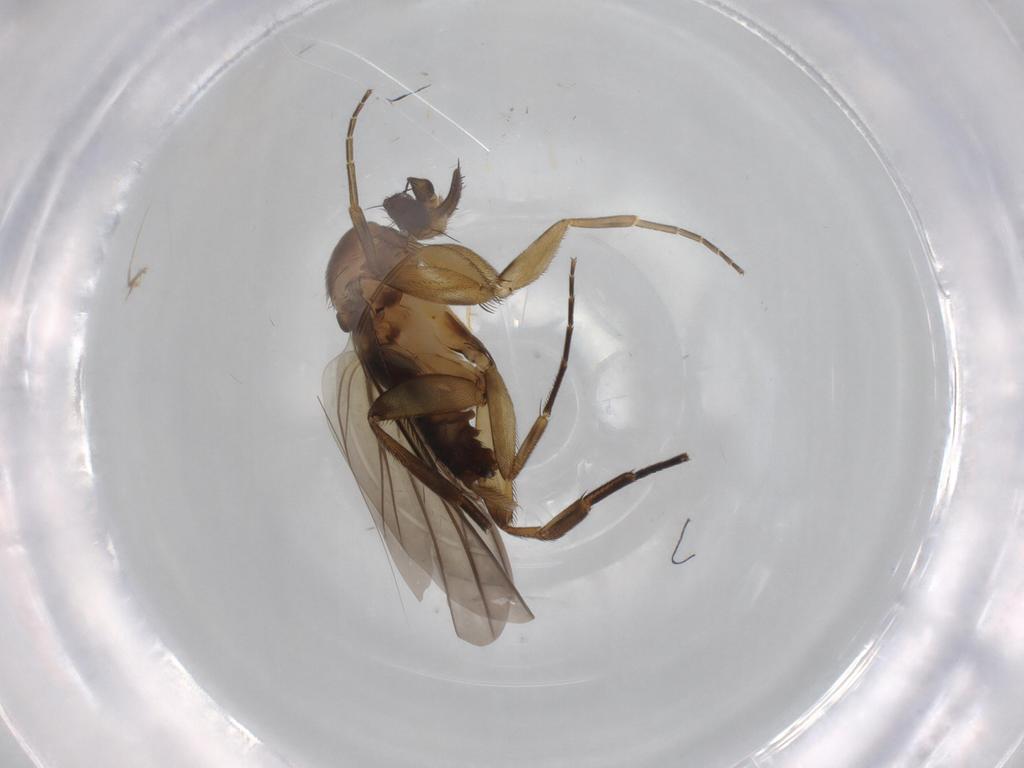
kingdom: Animalia
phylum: Arthropoda
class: Insecta
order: Diptera
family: Phoridae
